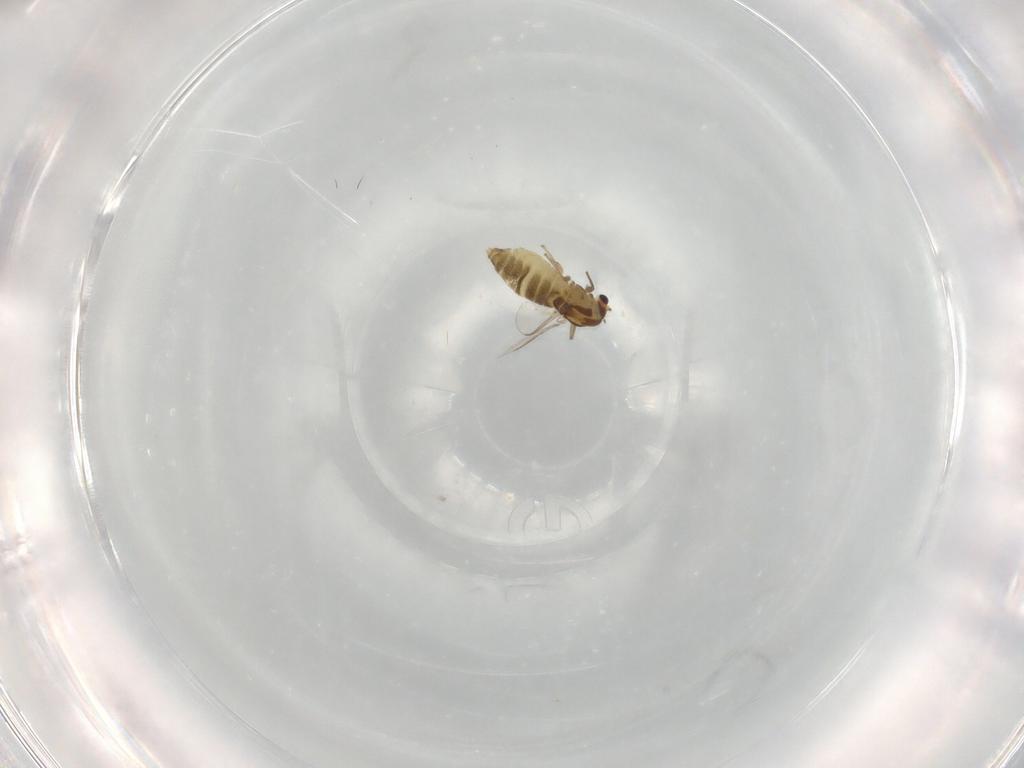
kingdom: Animalia
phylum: Arthropoda
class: Insecta
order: Diptera
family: Chironomidae
